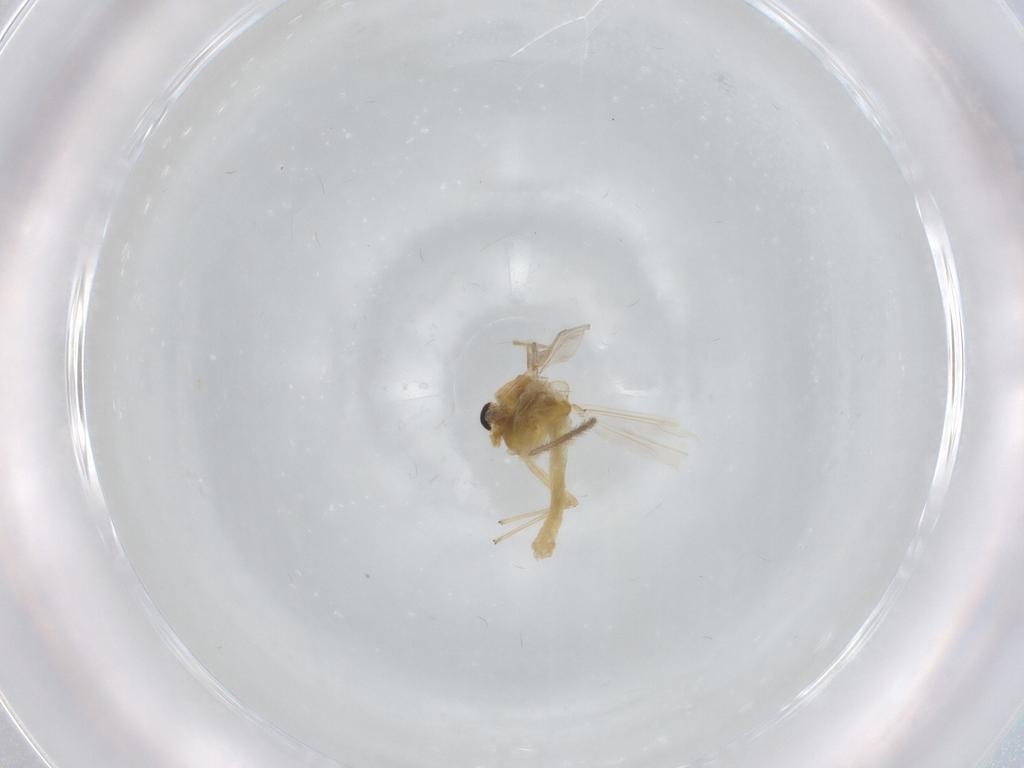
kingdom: Animalia
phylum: Arthropoda
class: Insecta
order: Diptera
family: Chironomidae
